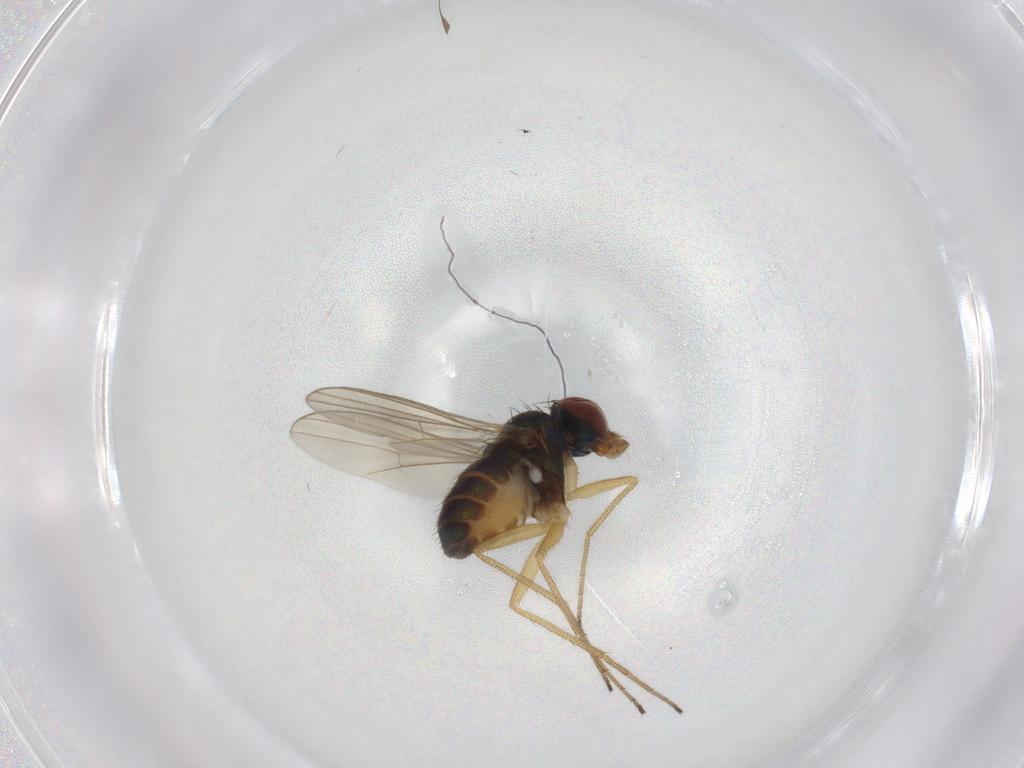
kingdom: Animalia
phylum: Arthropoda
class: Insecta
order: Diptera
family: Dolichopodidae
